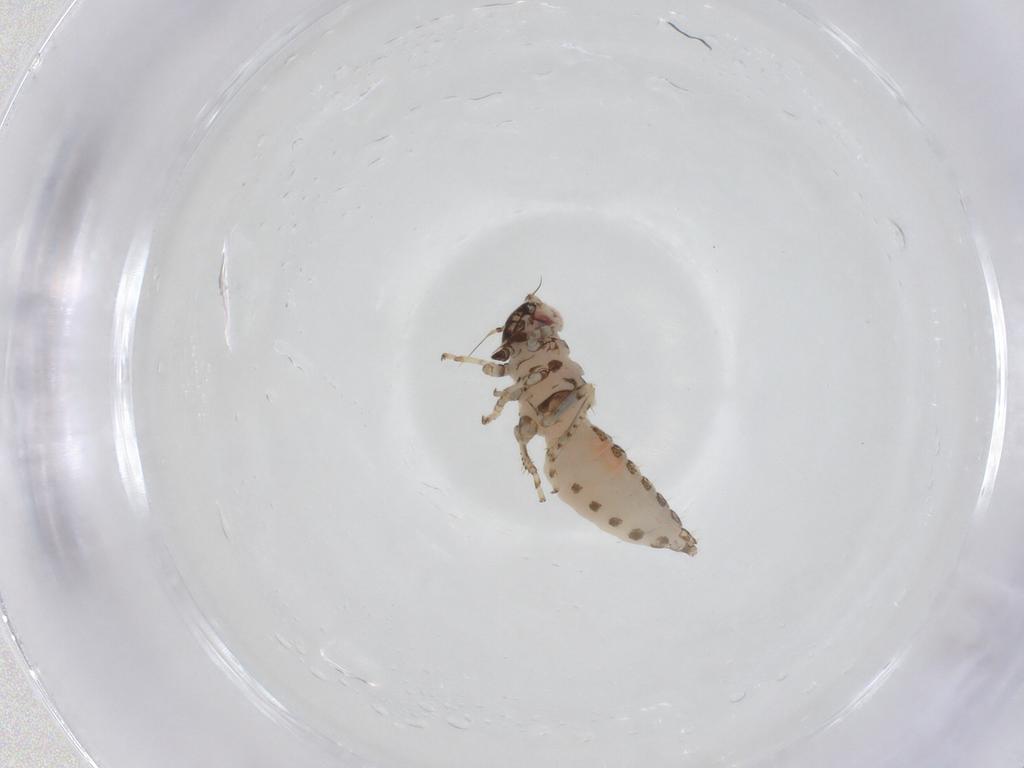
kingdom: Animalia
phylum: Arthropoda
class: Insecta
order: Hemiptera
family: Cicadellidae
